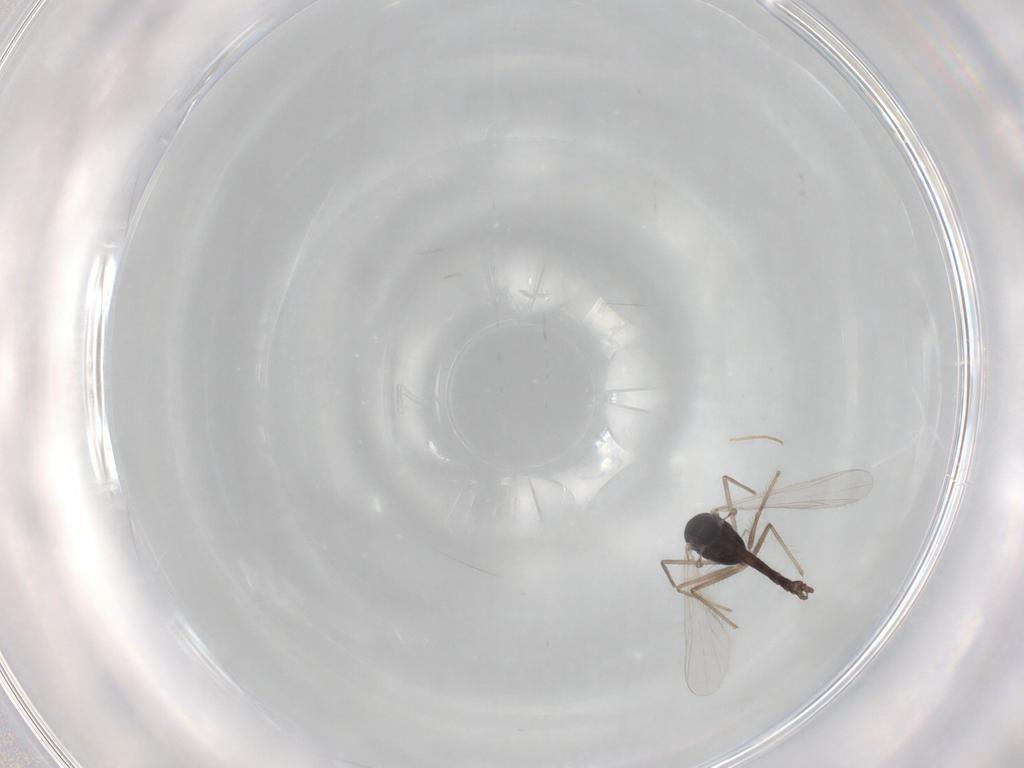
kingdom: Animalia
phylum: Arthropoda
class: Insecta
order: Diptera
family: Chironomidae
